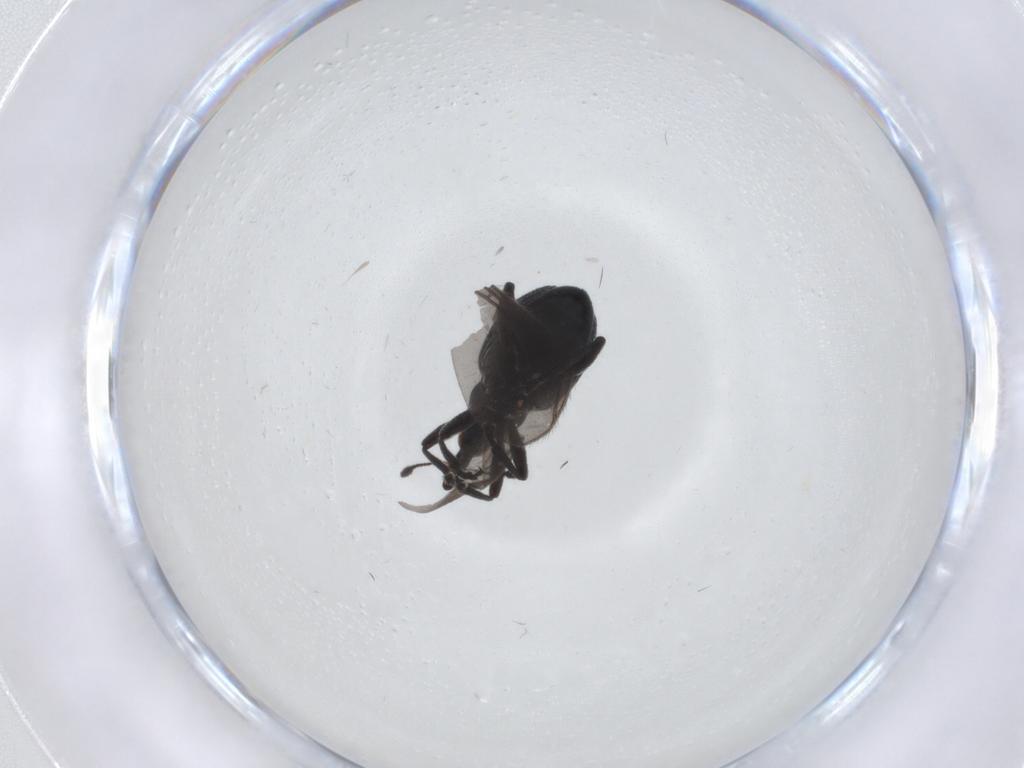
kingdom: Animalia
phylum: Arthropoda
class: Insecta
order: Coleoptera
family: Brentidae
